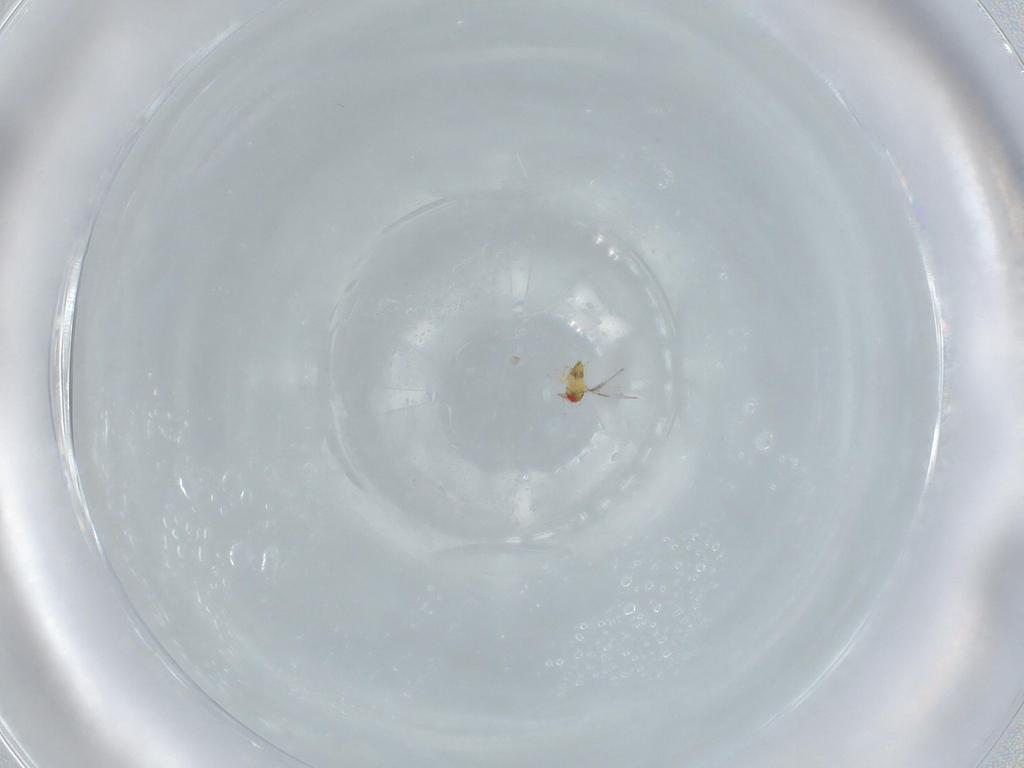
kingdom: Animalia
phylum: Arthropoda
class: Insecta
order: Hymenoptera
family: Trichogrammatidae
